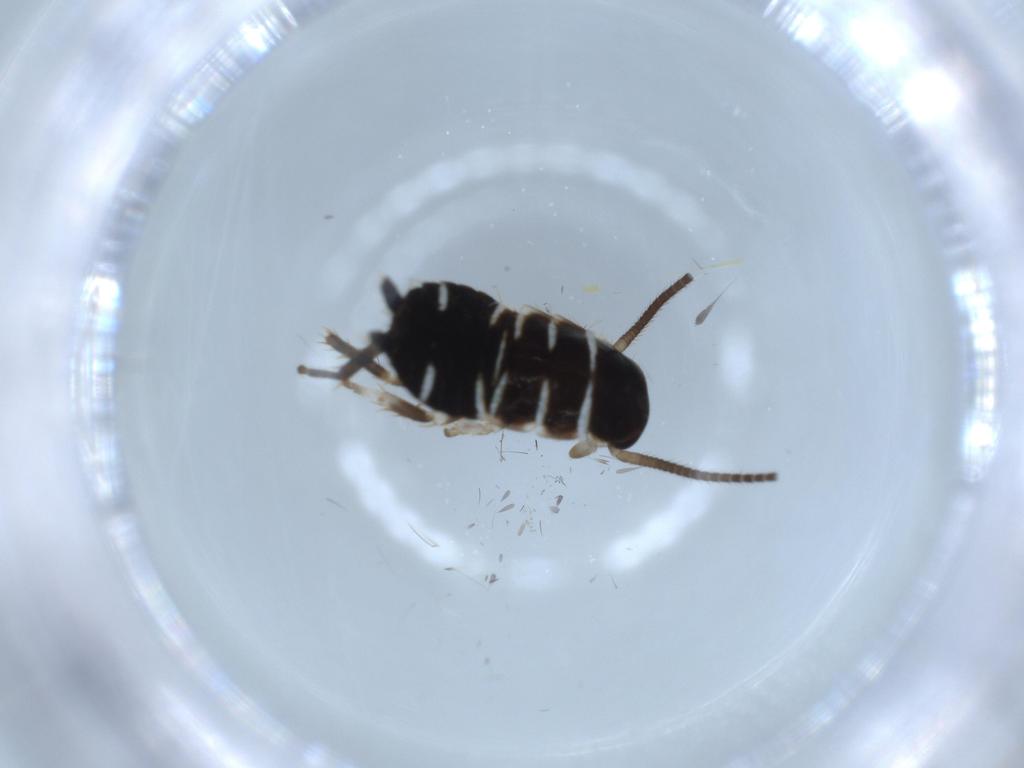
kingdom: Animalia
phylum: Arthropoda
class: Insecta
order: Blattodea
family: Ectobiidae
